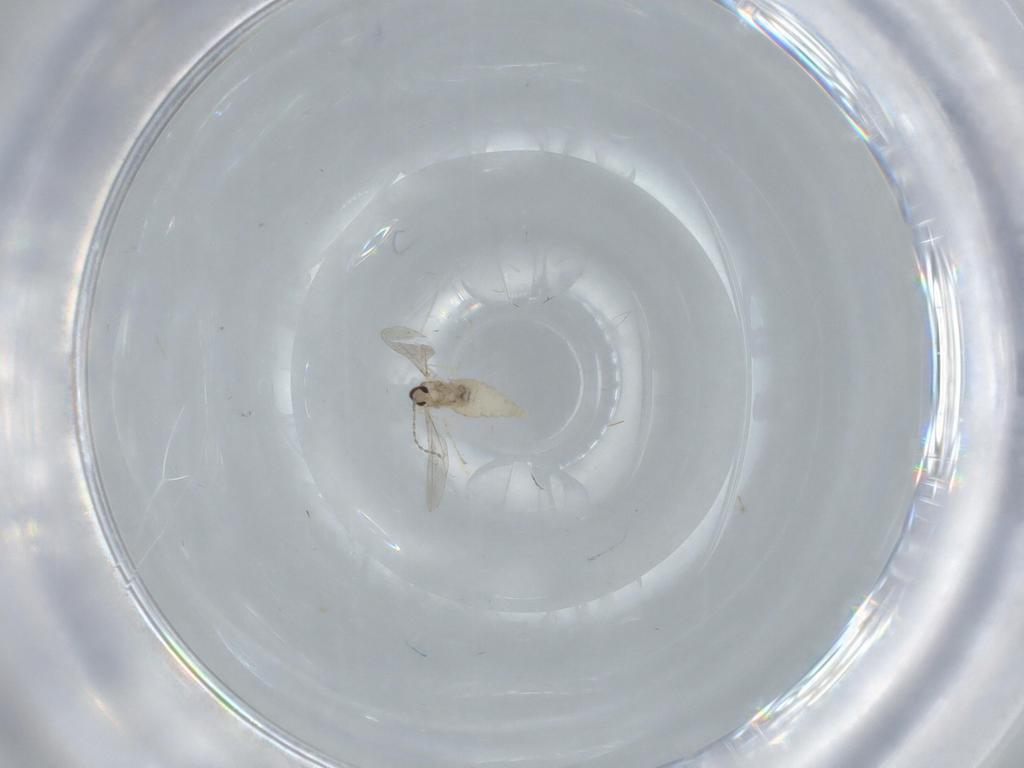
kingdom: Animalia
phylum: Arthropoda
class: Insecta
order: Diptera
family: Cecidomyiidae
